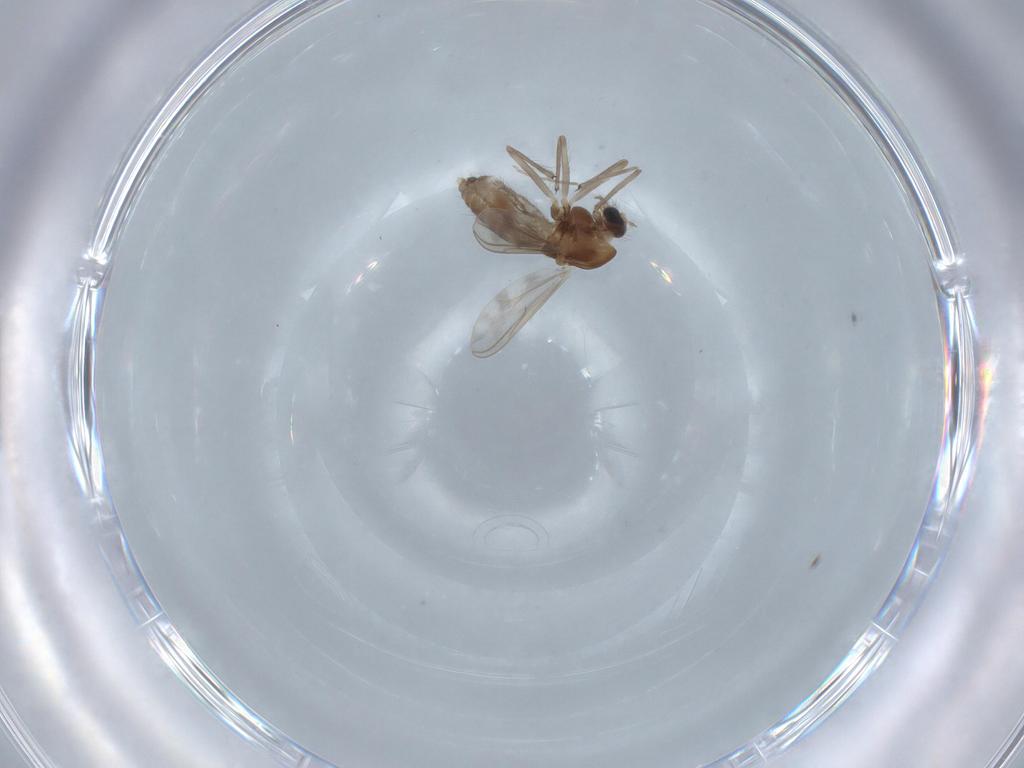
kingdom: Animalia
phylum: Arthropoda
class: Insecta
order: Diptera
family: Chironomidae
